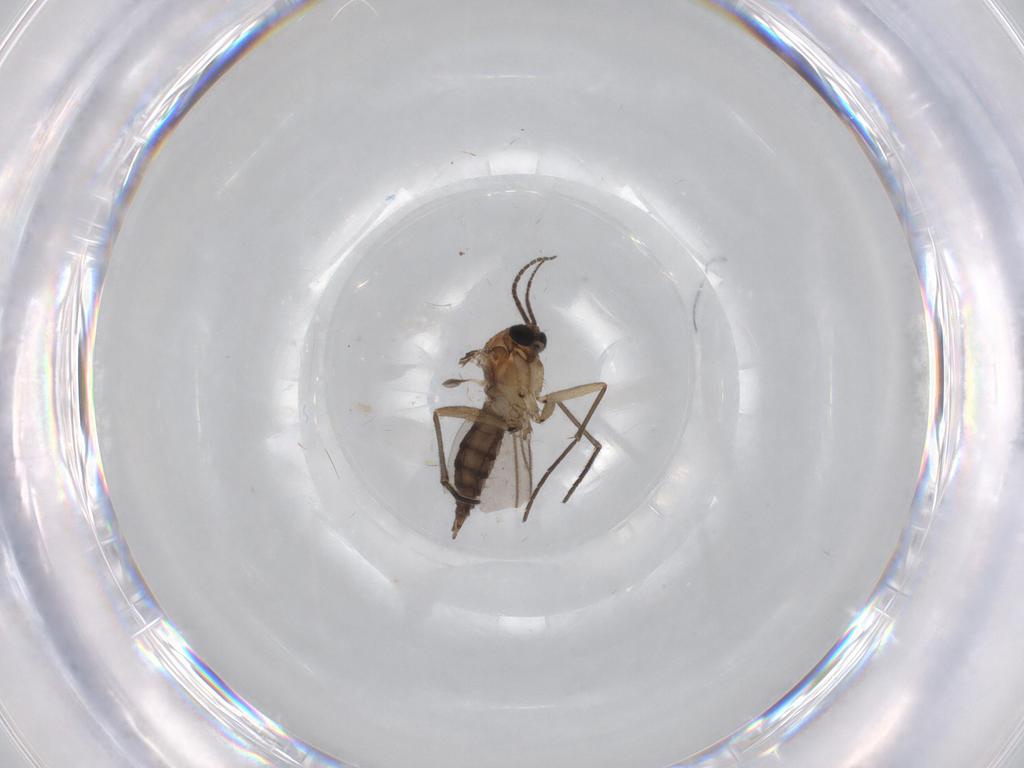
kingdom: Animalia
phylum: Arthropoda
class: Insecta
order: Diptera
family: Sciaridae
